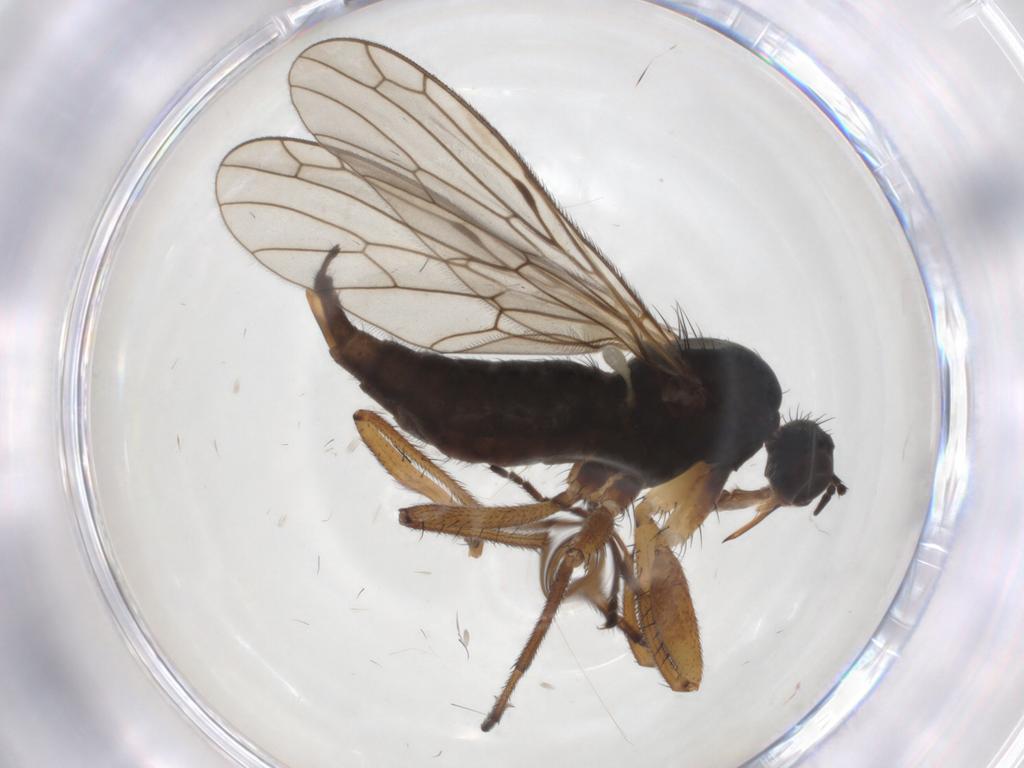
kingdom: Animalia
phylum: Arthropoda
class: Insecta
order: Diptera
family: Empididae
